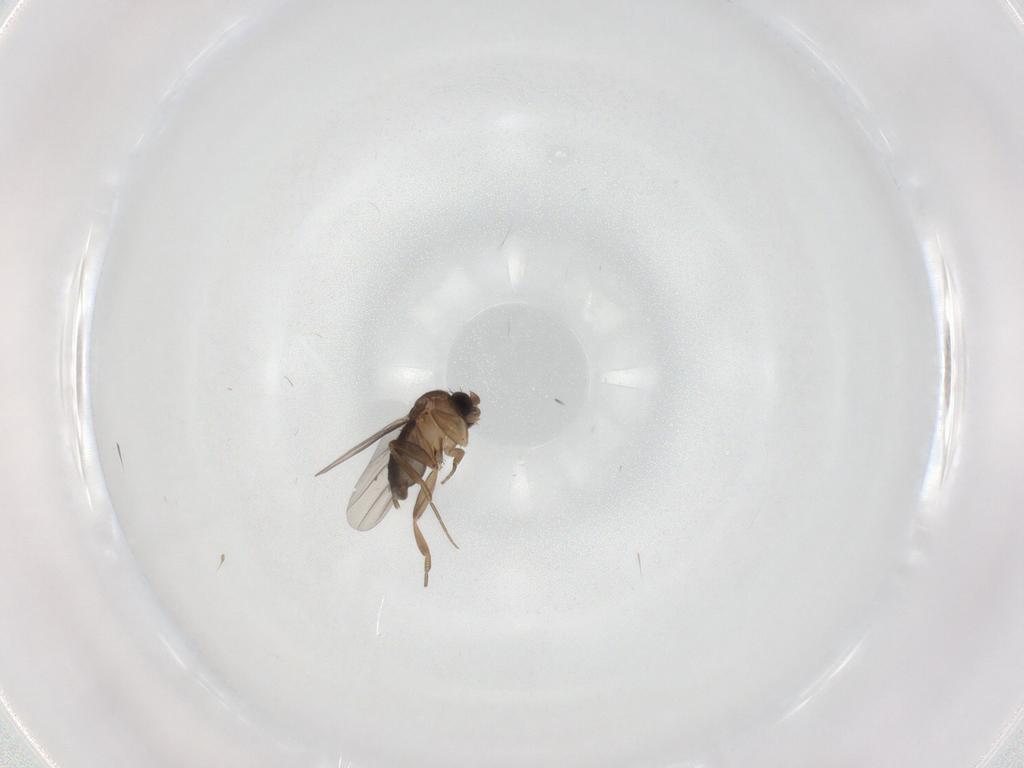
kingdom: Animalia
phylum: Arthropoda
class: Insecta
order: Diptera
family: Phoridae
